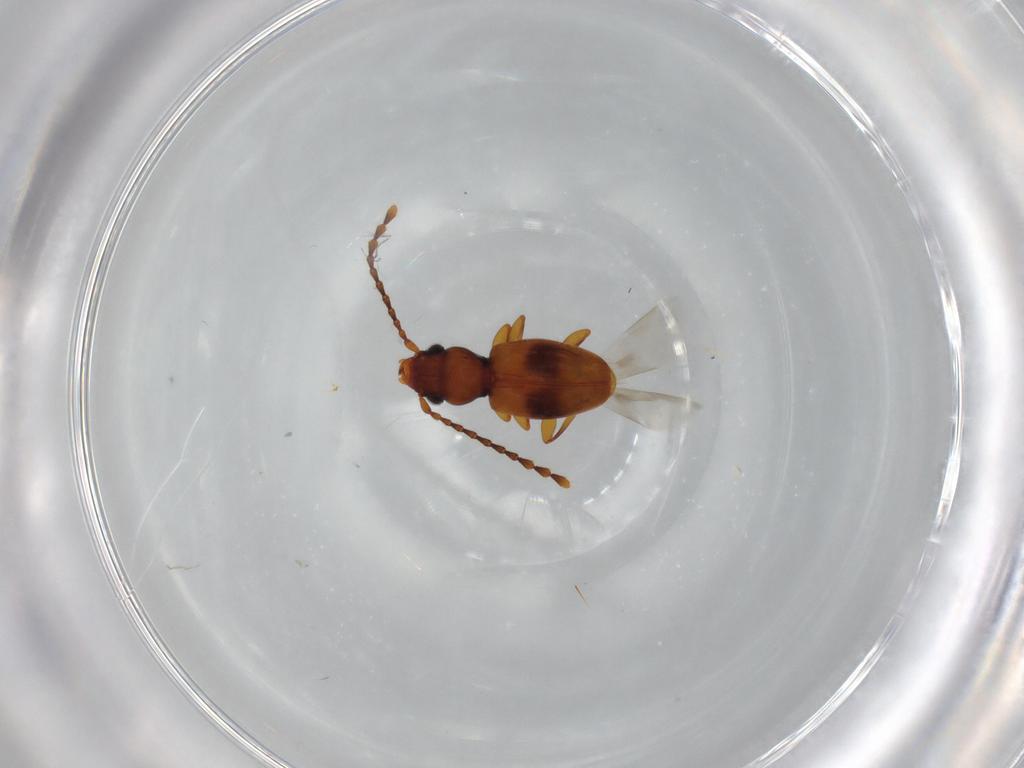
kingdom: Animalia
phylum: Arthropoda
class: Insecta
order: Coleoptera
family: Laemophloeidae
